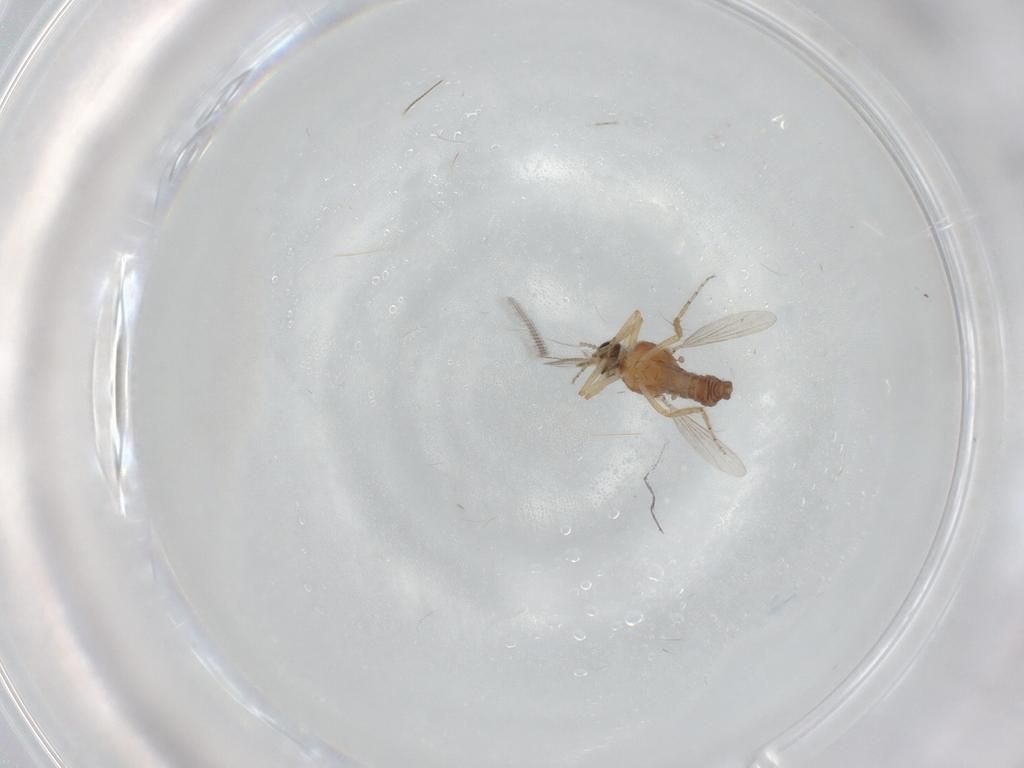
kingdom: Animalia
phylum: Arthropoda
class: Insecta
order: Diptera
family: Ceratopogonidae
